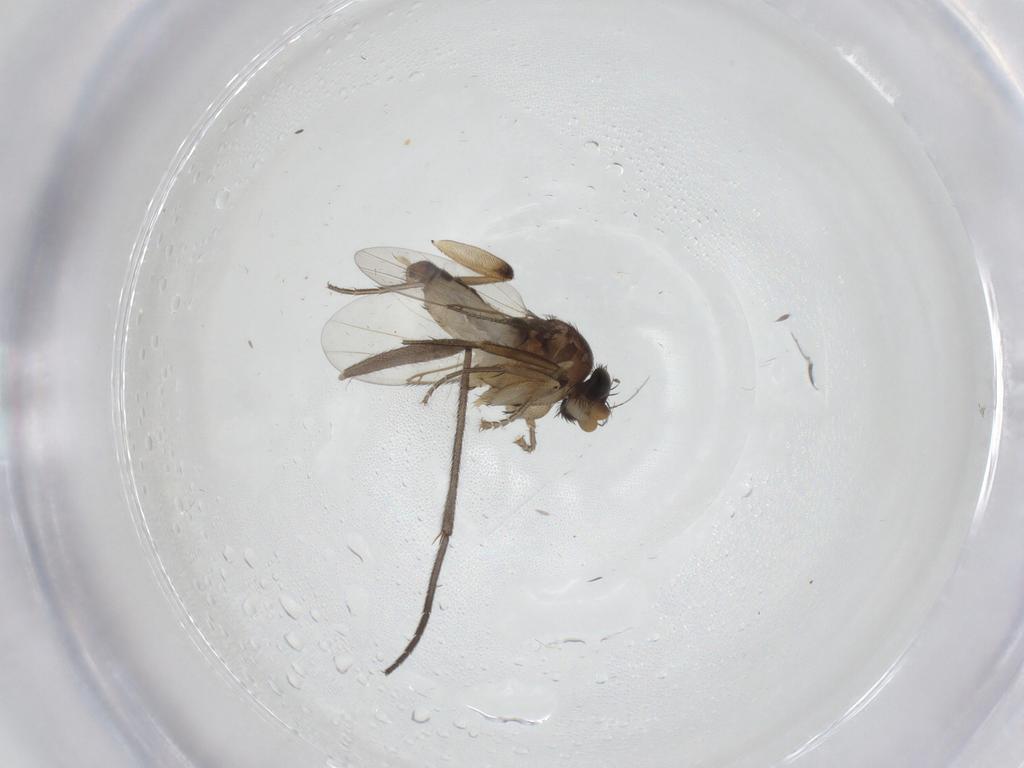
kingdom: Animalia
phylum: Arthropoda
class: Insecta
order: Diptera
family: Phoridae
